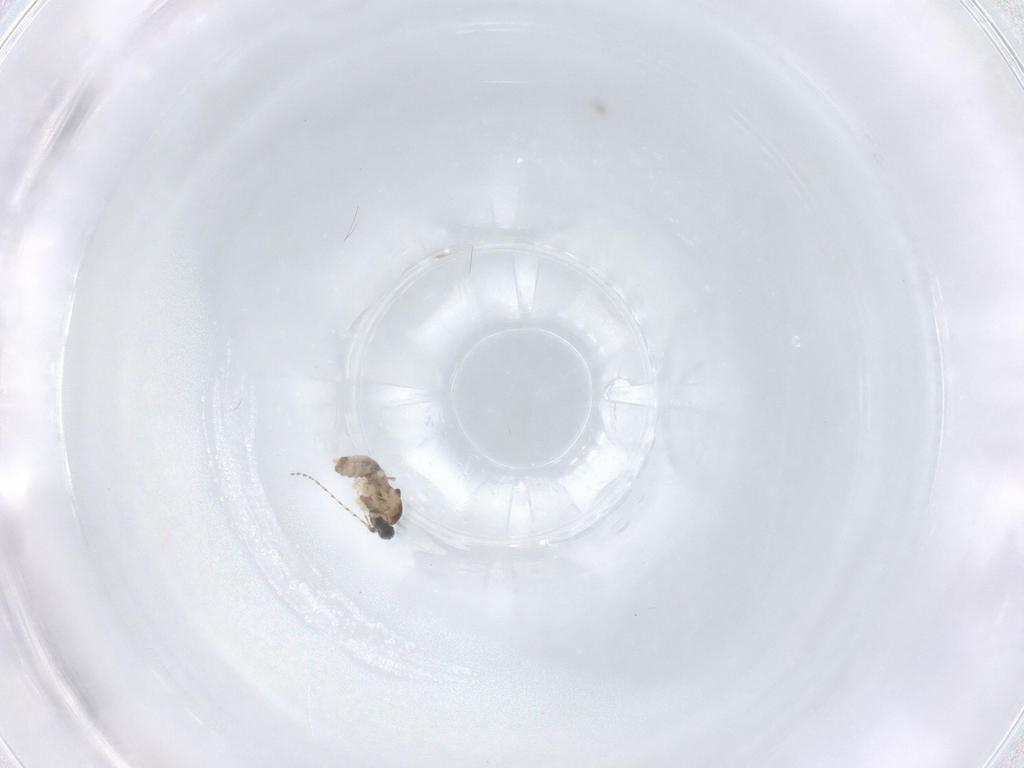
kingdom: Animalia
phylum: Arthropoda
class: Insecta
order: Diptera
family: Cecidomyiidae
